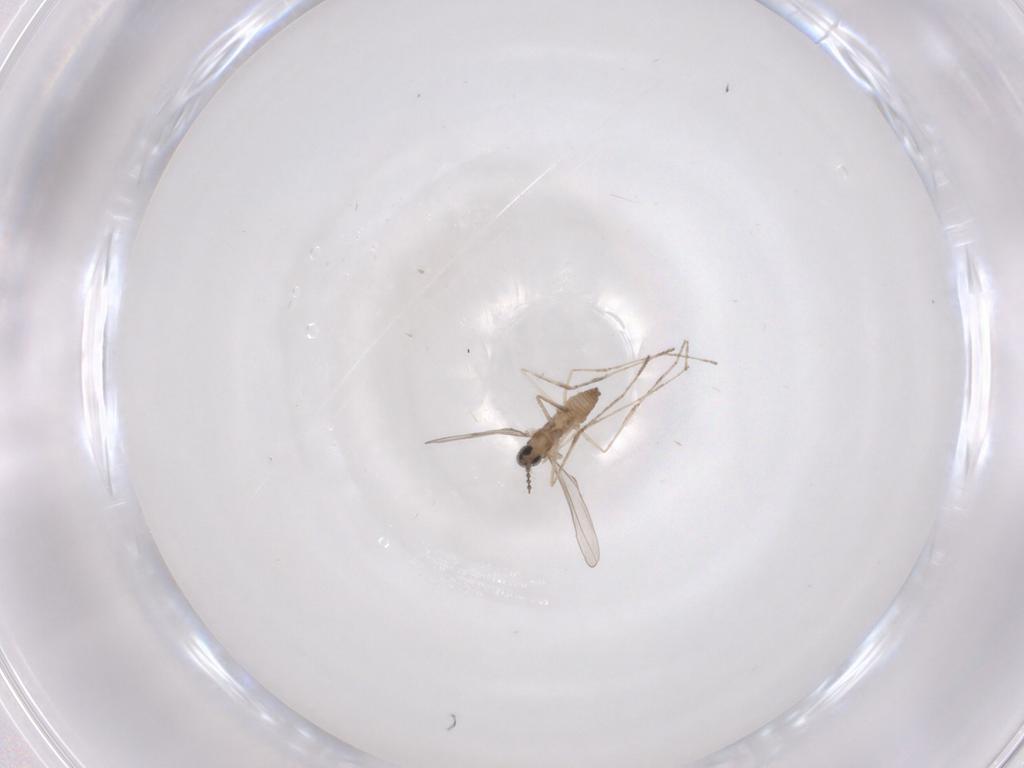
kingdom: Animalia
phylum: Arthropoda
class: Insecta
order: Diptera
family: Cecidomyiidae
